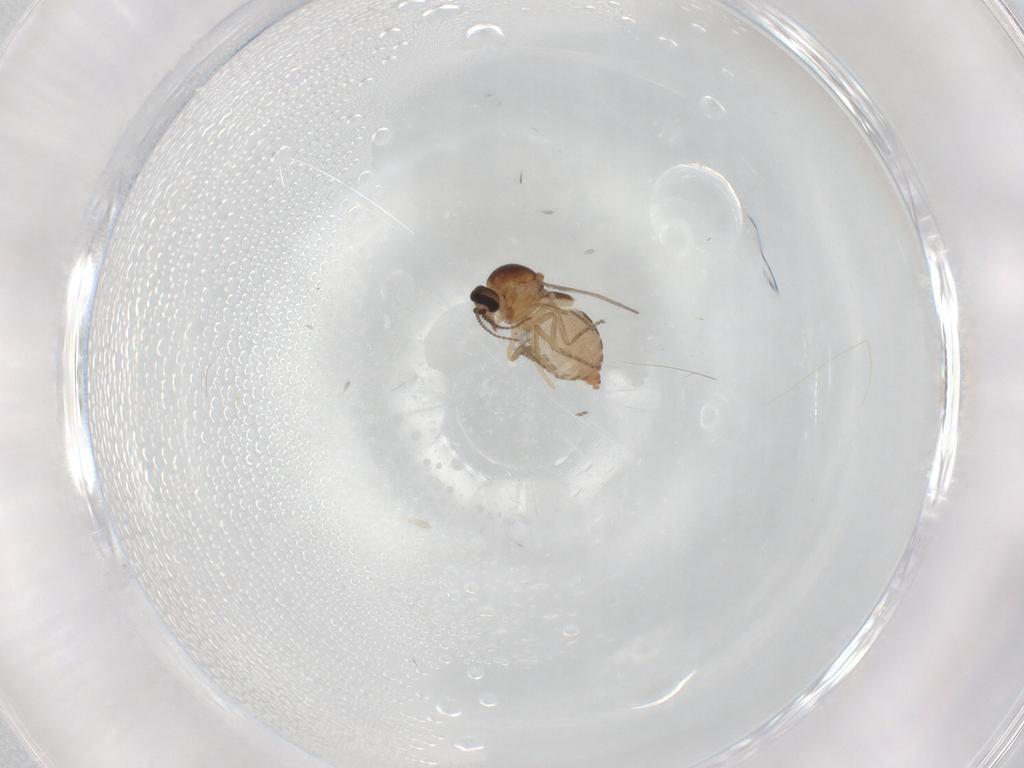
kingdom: Animalia
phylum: Arthropoda
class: Insecta
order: Diptera
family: Ceratopogonidae
